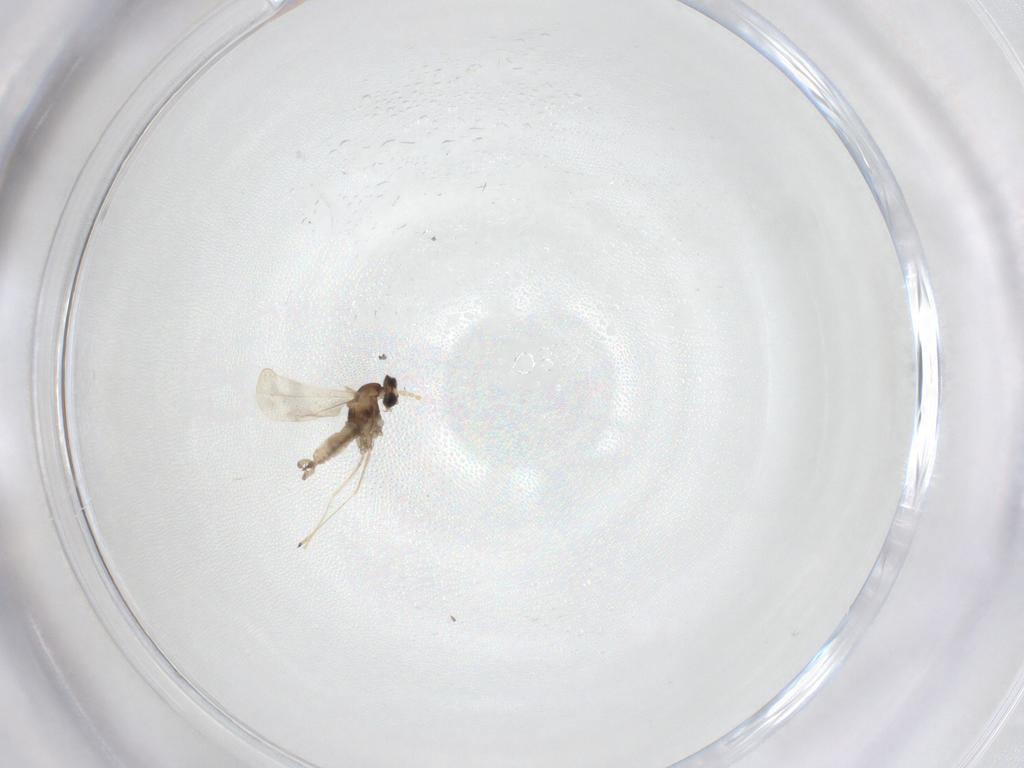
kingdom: Animalia
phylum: Arthropoda
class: Insecta
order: Diptera
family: Cecidomyiidae
